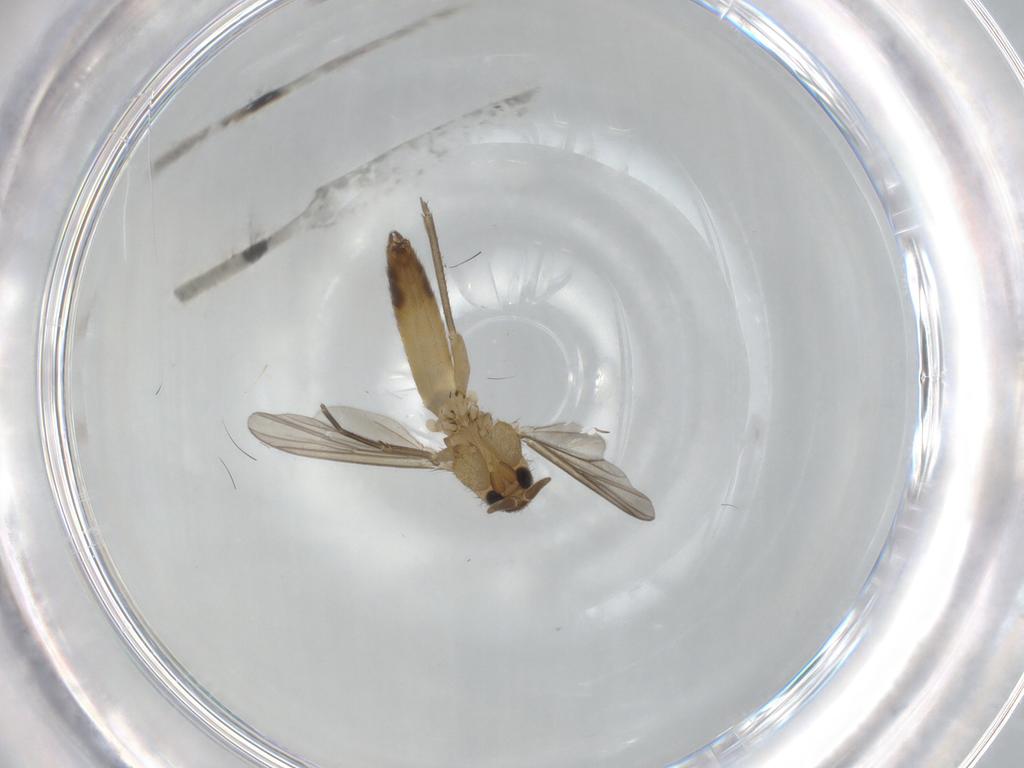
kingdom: Animalia
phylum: Arthropoda
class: Insecta
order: Diptera
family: Mycetophilidae
